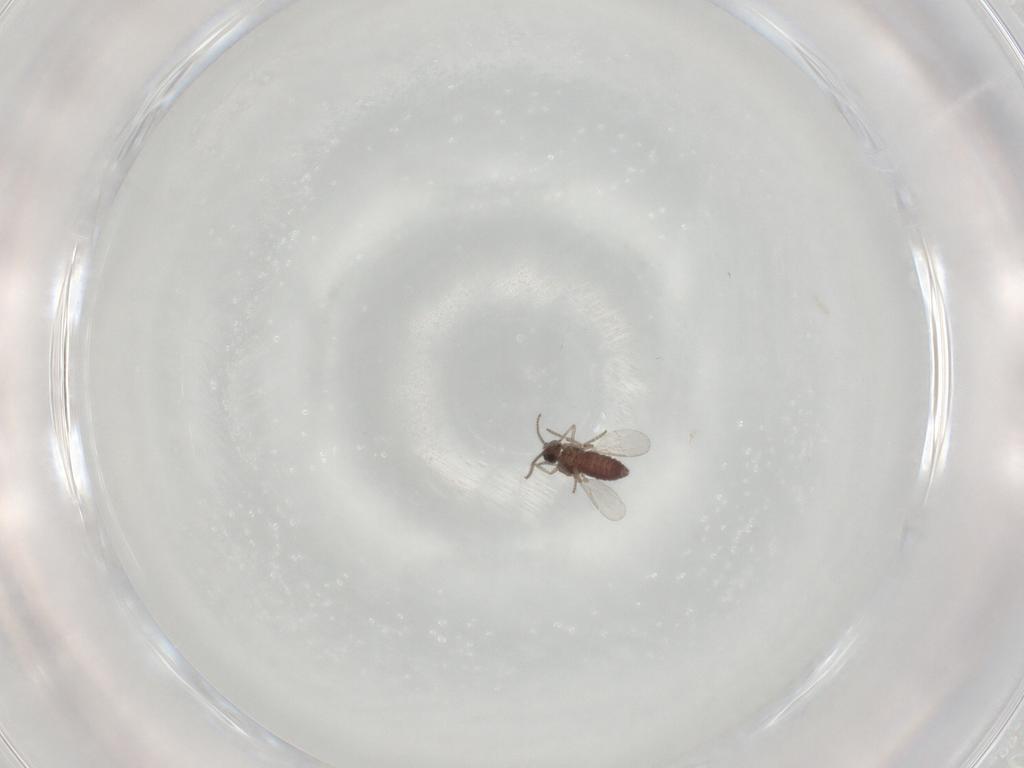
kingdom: Animalia
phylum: Arthropoda
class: Insecta
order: Diptera
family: Ceratopogonidae
